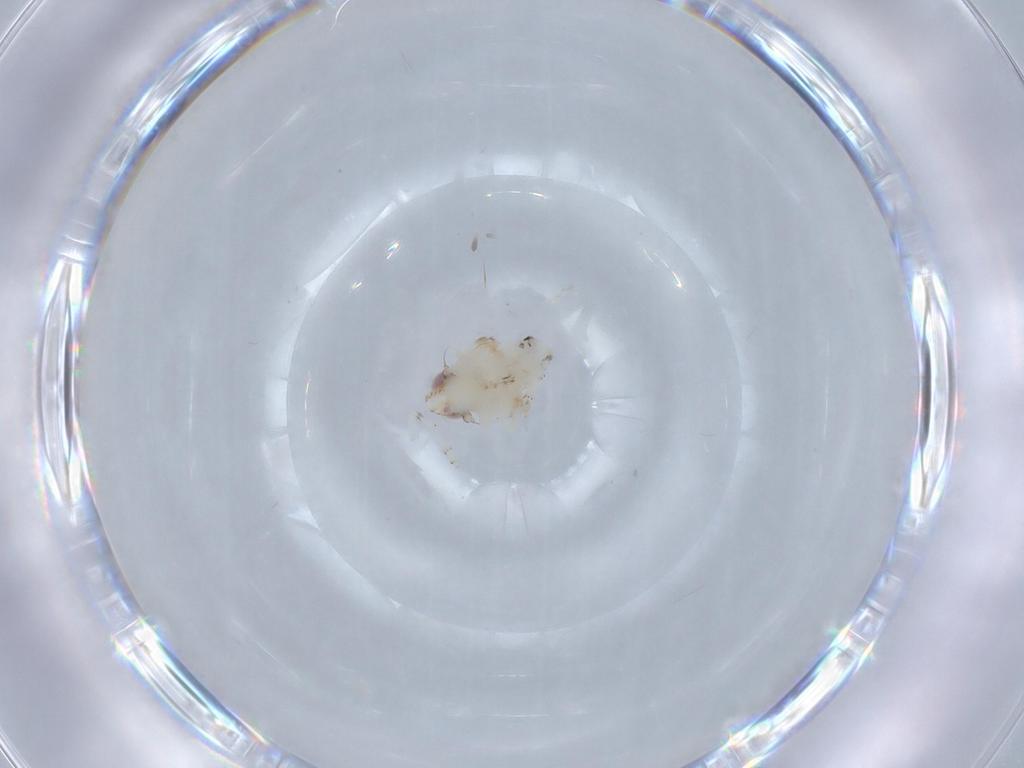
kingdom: Animalia
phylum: Arthropoda
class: Insecta
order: Hemiptera
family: Nogodinidae
